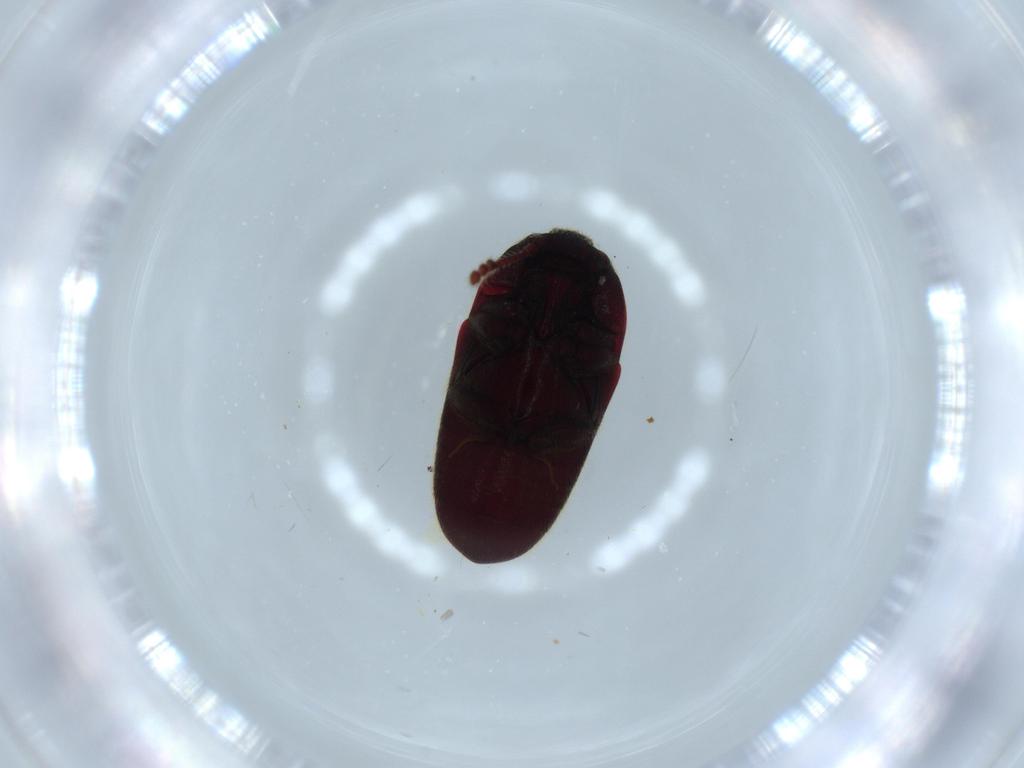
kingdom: Animalia
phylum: Arthropoda
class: Insecta
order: Coleoptera
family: Throscidae
